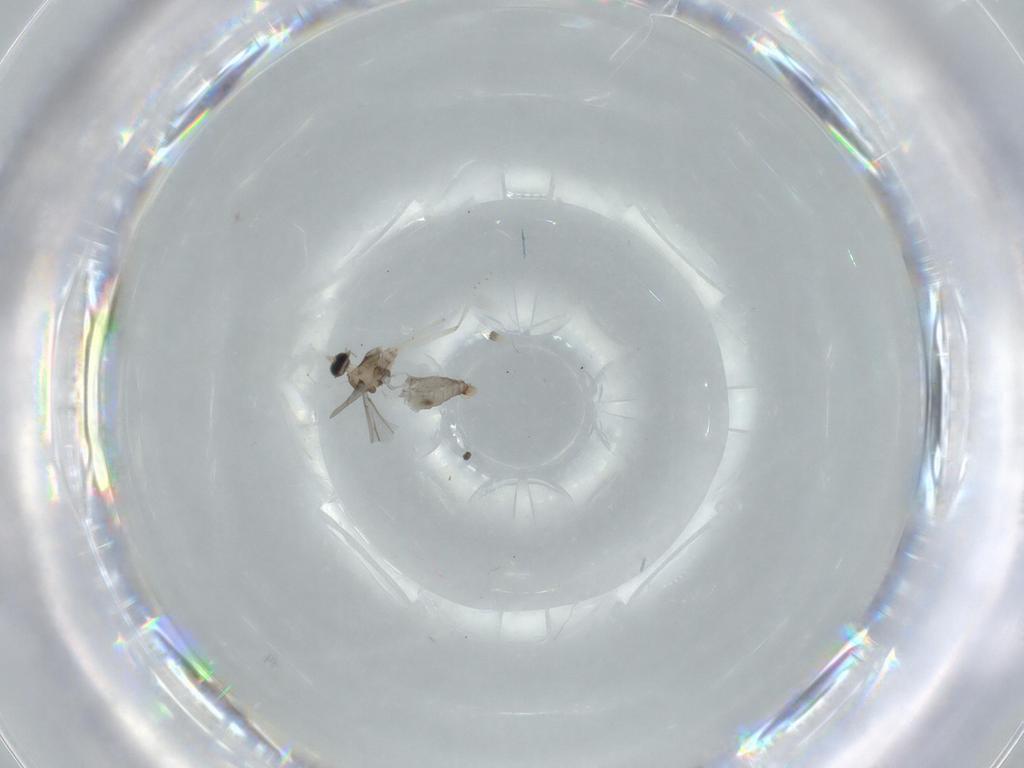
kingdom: Animalia
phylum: Arthropoda
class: Insecta
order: Diptera
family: Cecidomyiidae
